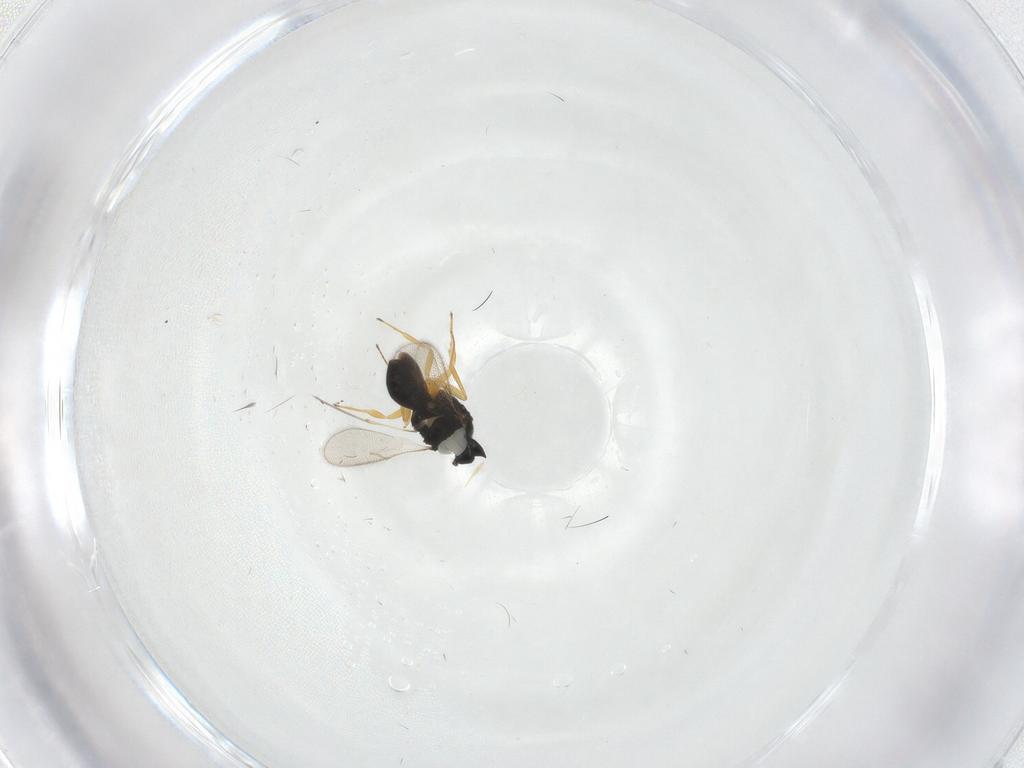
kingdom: Animalia
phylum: Arthropoda
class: Insecta
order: Hymenoptera
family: Scelionidae
